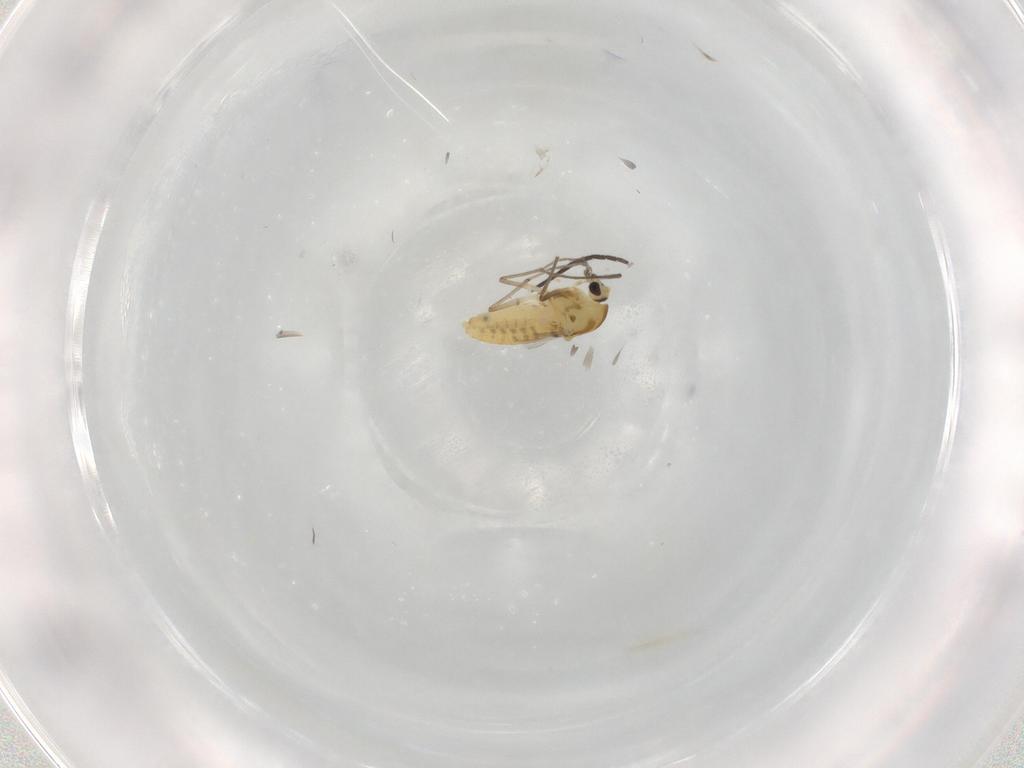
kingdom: Animalia
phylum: Arthropoda
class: Insecta
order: Diptera
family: Chironomidae
